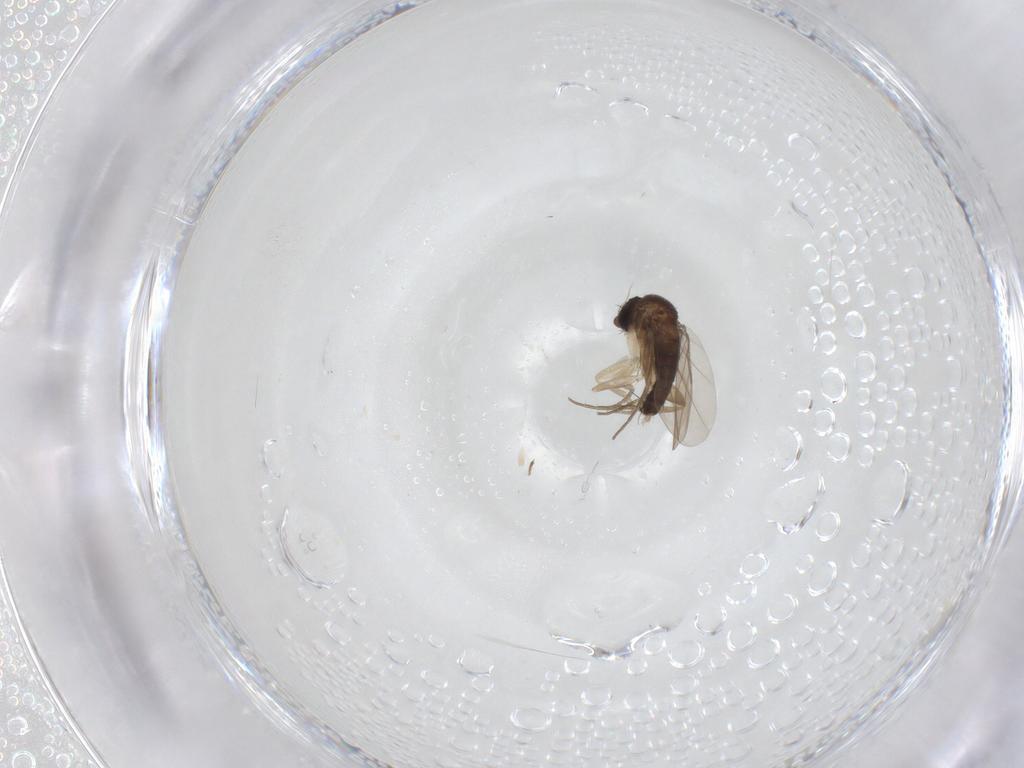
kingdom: Animalia
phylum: Arthropoda
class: Insecta
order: Diptera
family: Phoridae
